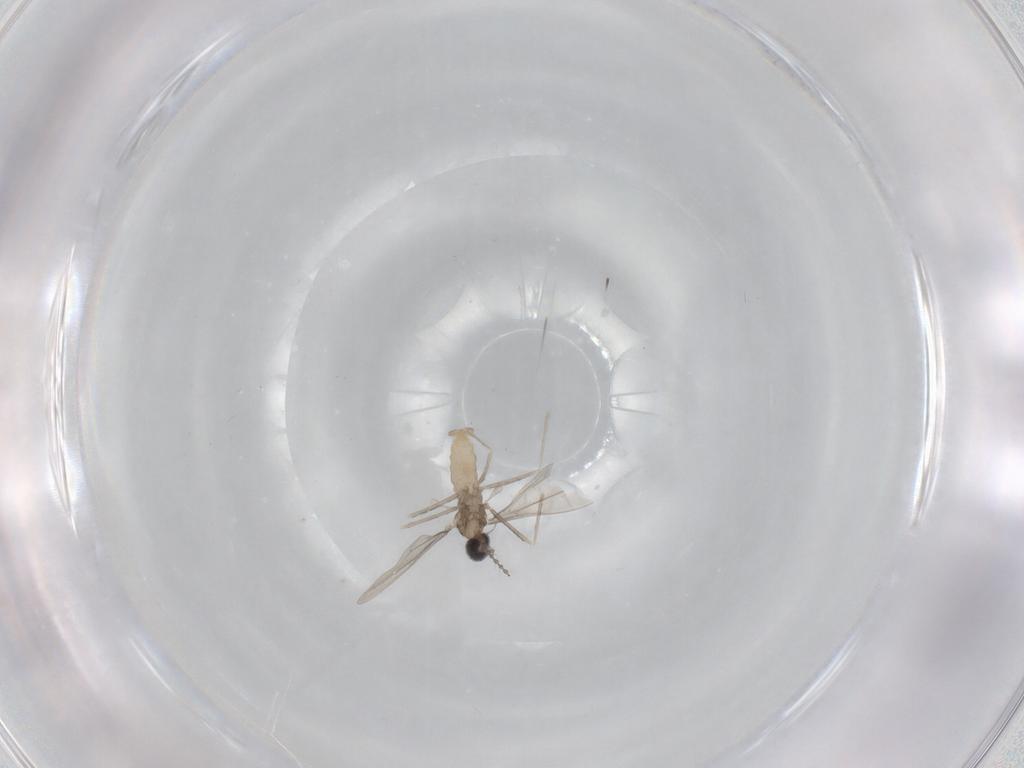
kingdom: Animalia
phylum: Arthropoda
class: Insecta
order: Diptera
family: Cecidomyiidae
